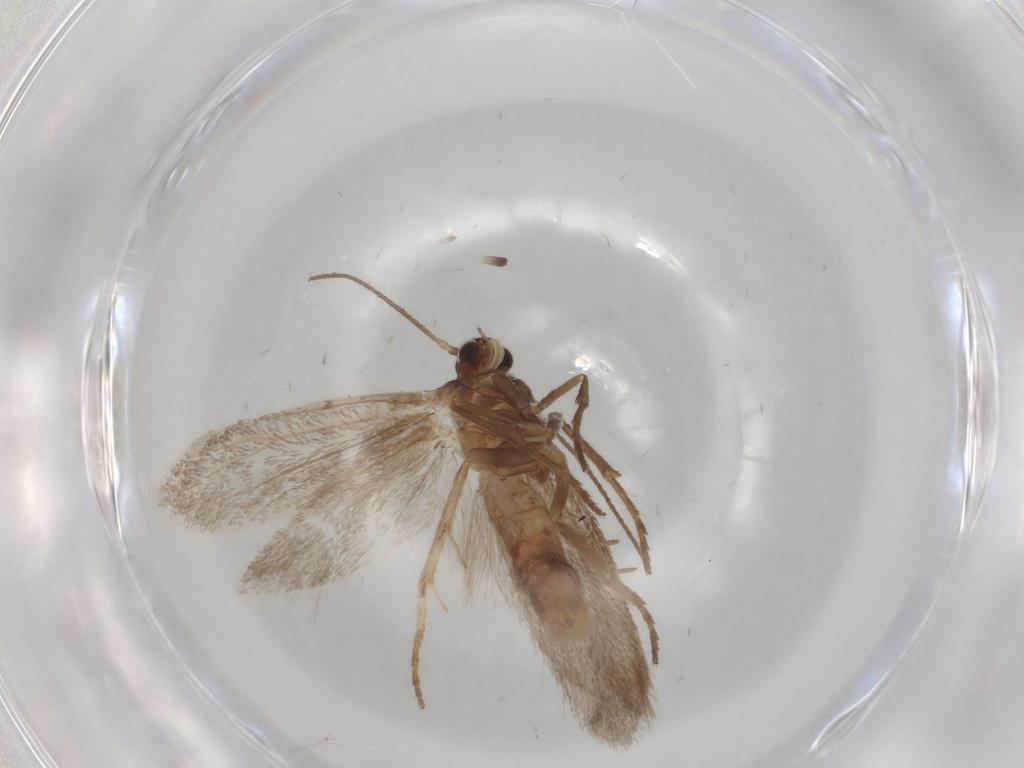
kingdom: Animalia
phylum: Arthropoda
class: Insecta
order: Lepidoptera
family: Limacodidae
